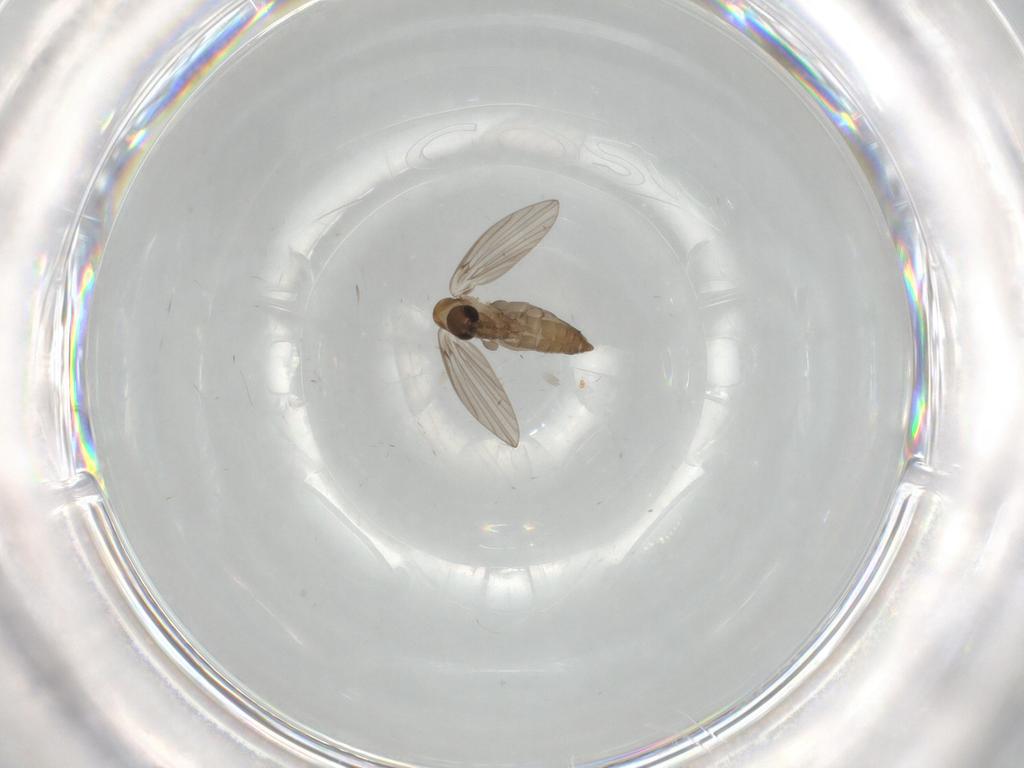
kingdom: Animalia
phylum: Arthropoda
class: Insecta
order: Diptera
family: Psychodidae
